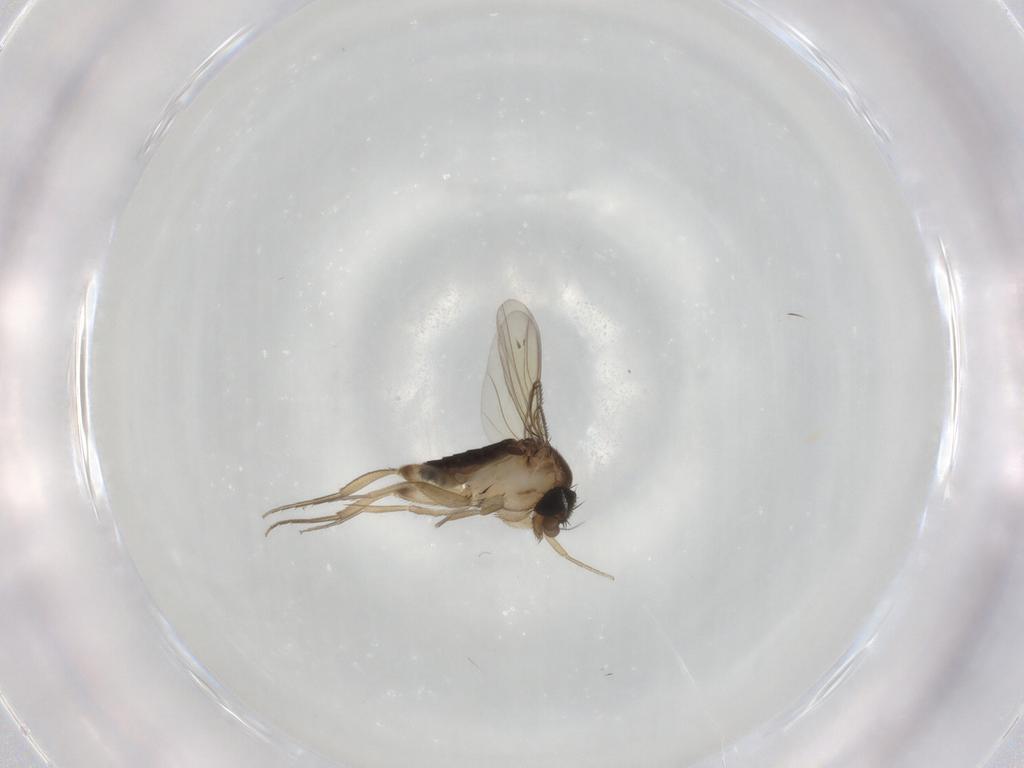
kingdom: Animalia
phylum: Arthropoda
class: Insecta
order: Diptera
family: Phoridae
